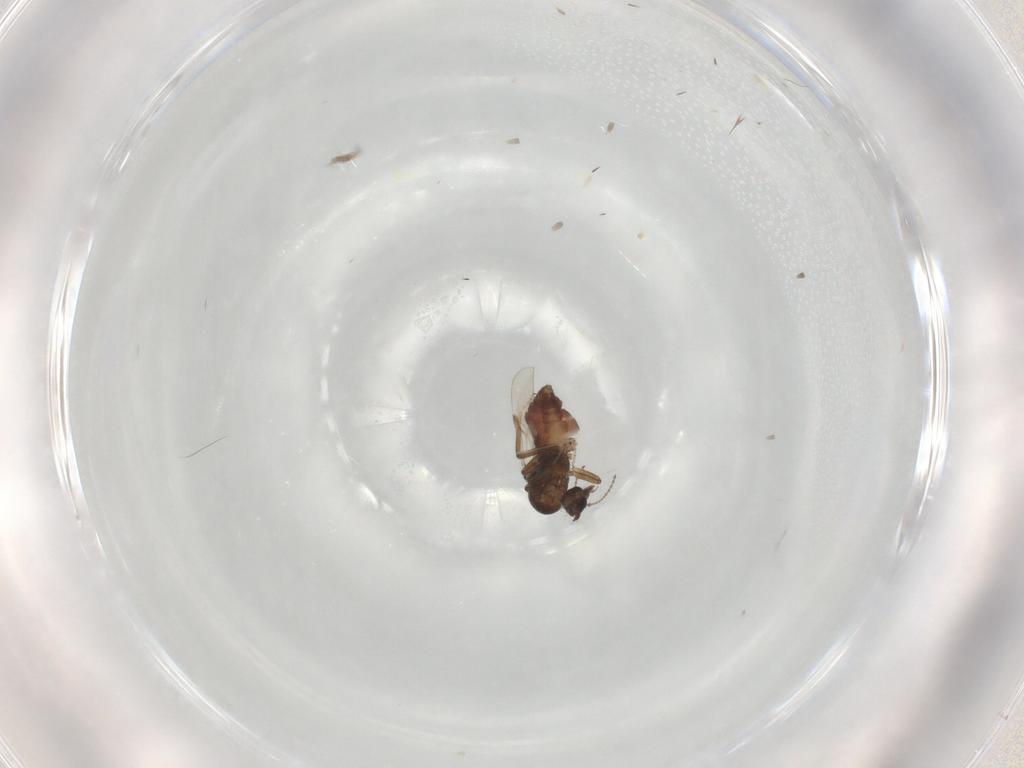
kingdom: Animalia
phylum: Arthropoda
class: Insecta
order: Diptera
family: Ceratopogonidae
